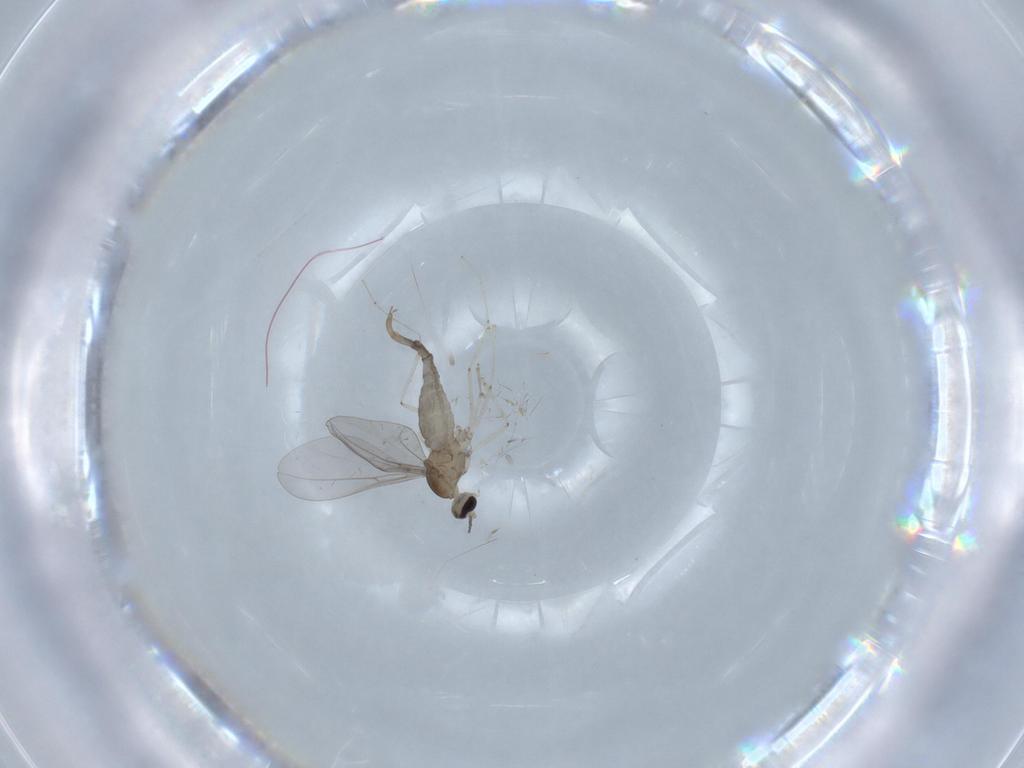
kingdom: Animalia
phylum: Arthropoda
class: Insecta
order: Diptera
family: Cecidomyiidae
